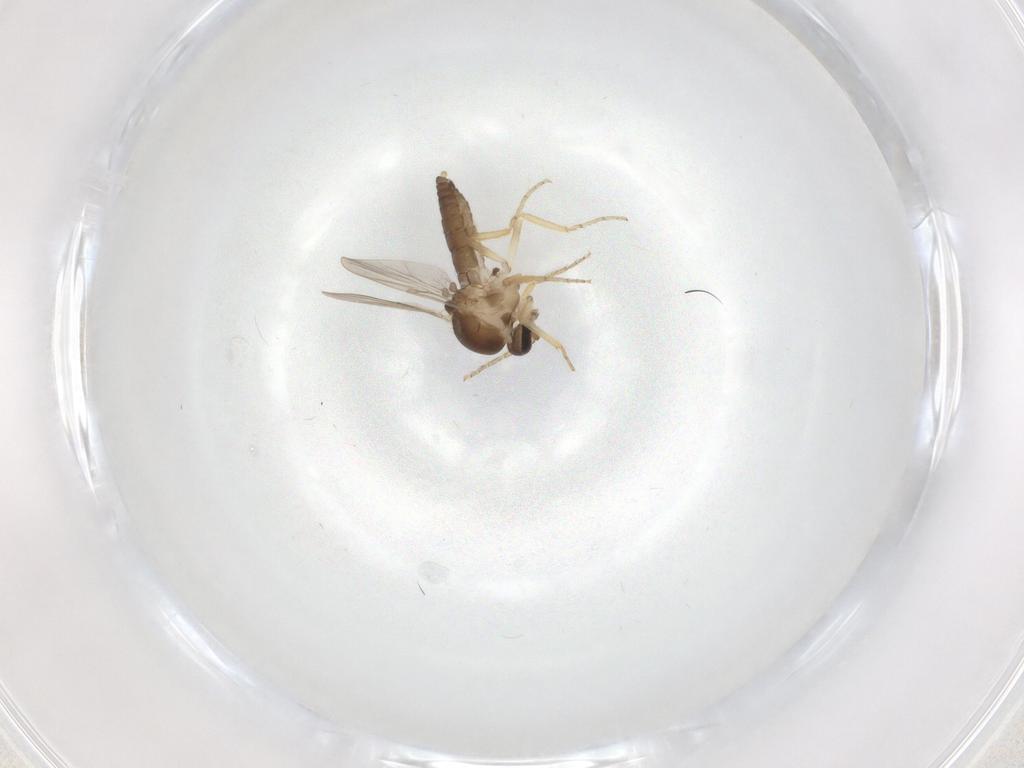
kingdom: Animalia
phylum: Arthropoda
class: Insecta
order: Diptera
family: Ceratopogonidae
